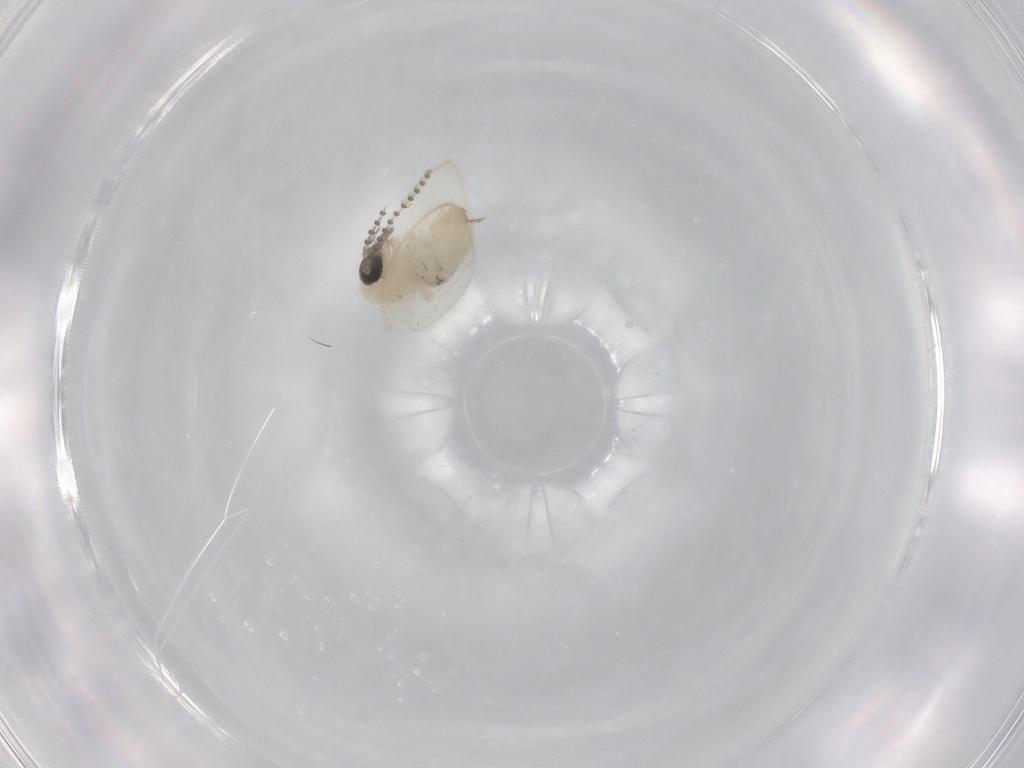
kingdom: Animalia
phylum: Arthropoda
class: Insecta
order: Diptera
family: Psychodidae
